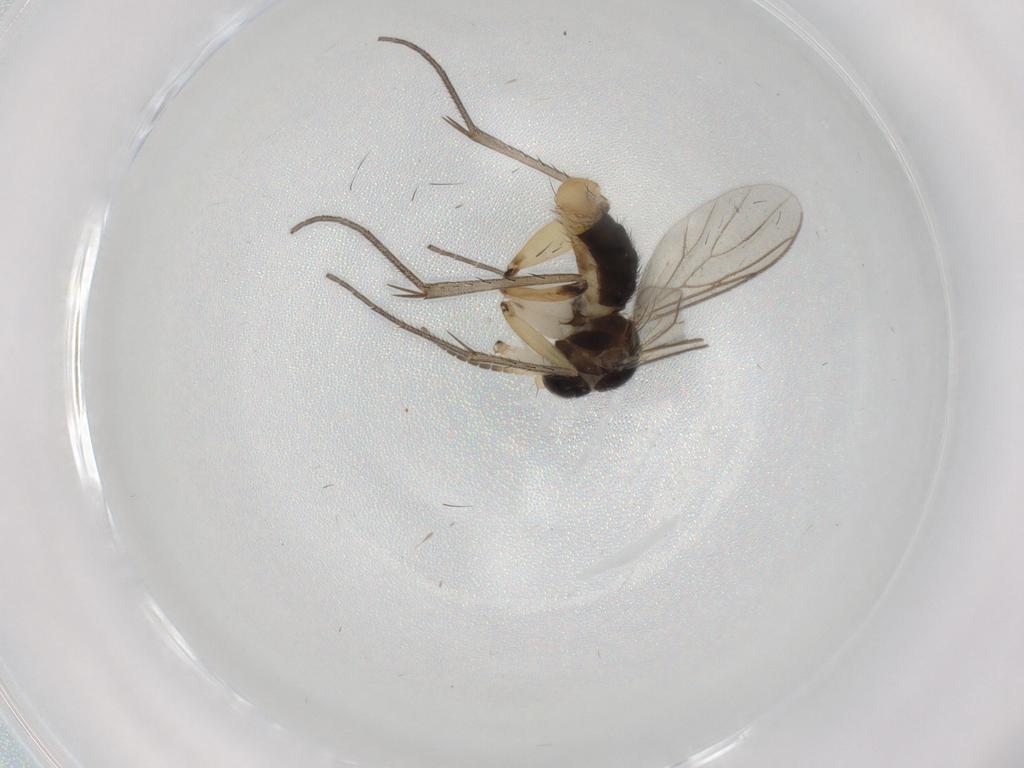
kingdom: Animalia
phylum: Arthropoda
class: Insecta
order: Diptera
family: Mycetophilidae
